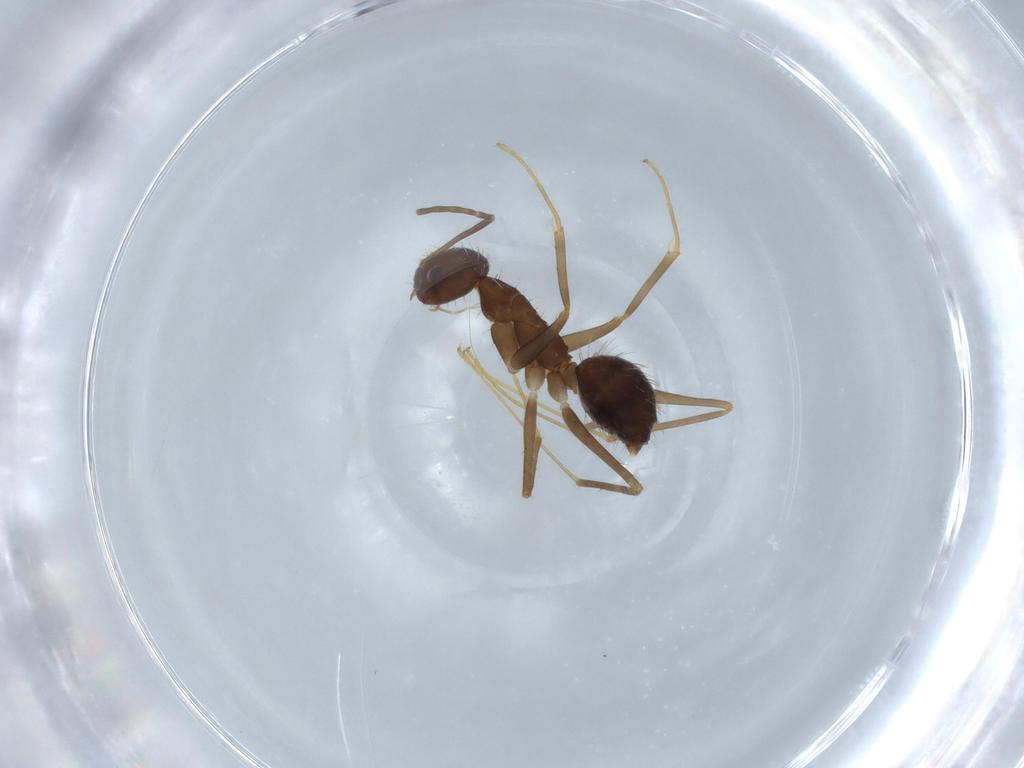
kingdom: Animalia
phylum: Arthropoda
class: Insecta
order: Hymenoptera
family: Formicidae
